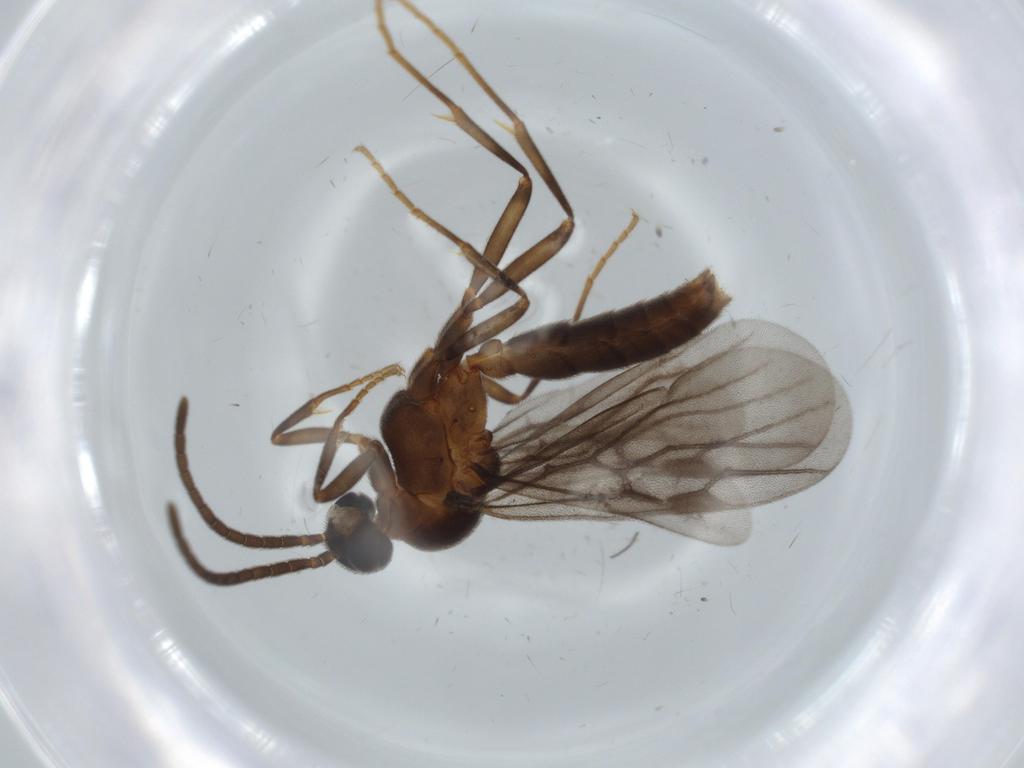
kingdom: Animalia
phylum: Arthropoda
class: Insecta
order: Hymenoptera
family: Formicidae
